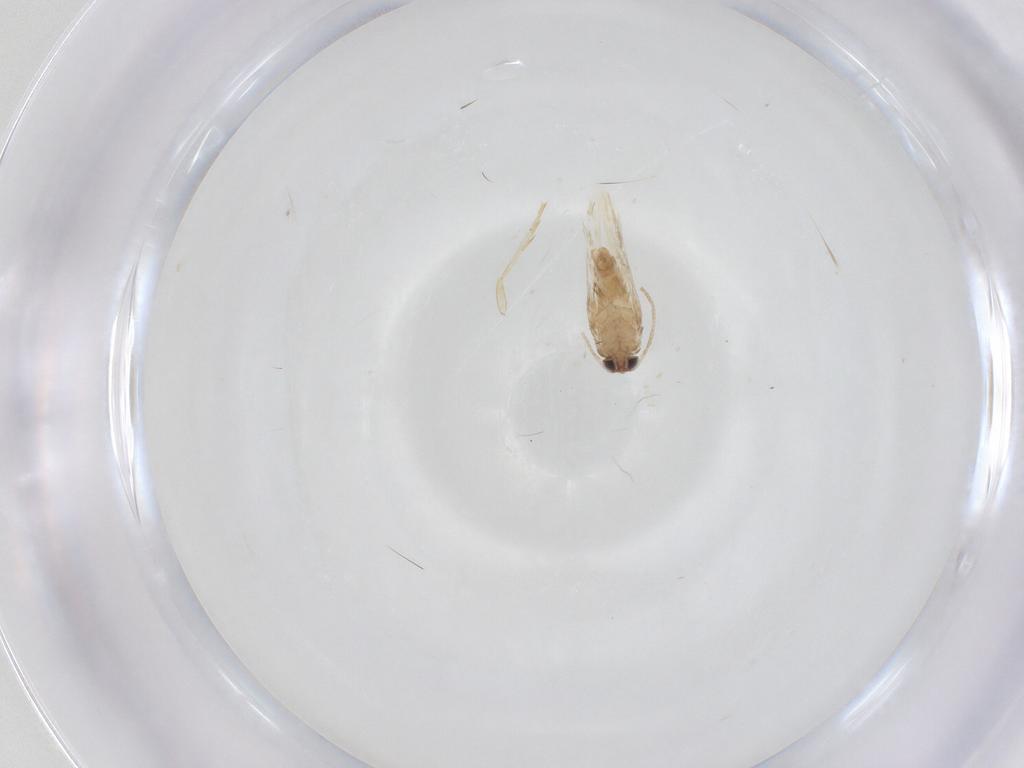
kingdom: Animalia
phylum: Arthropoda
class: Insecta
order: Lepidoptera
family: Nepticulidae
